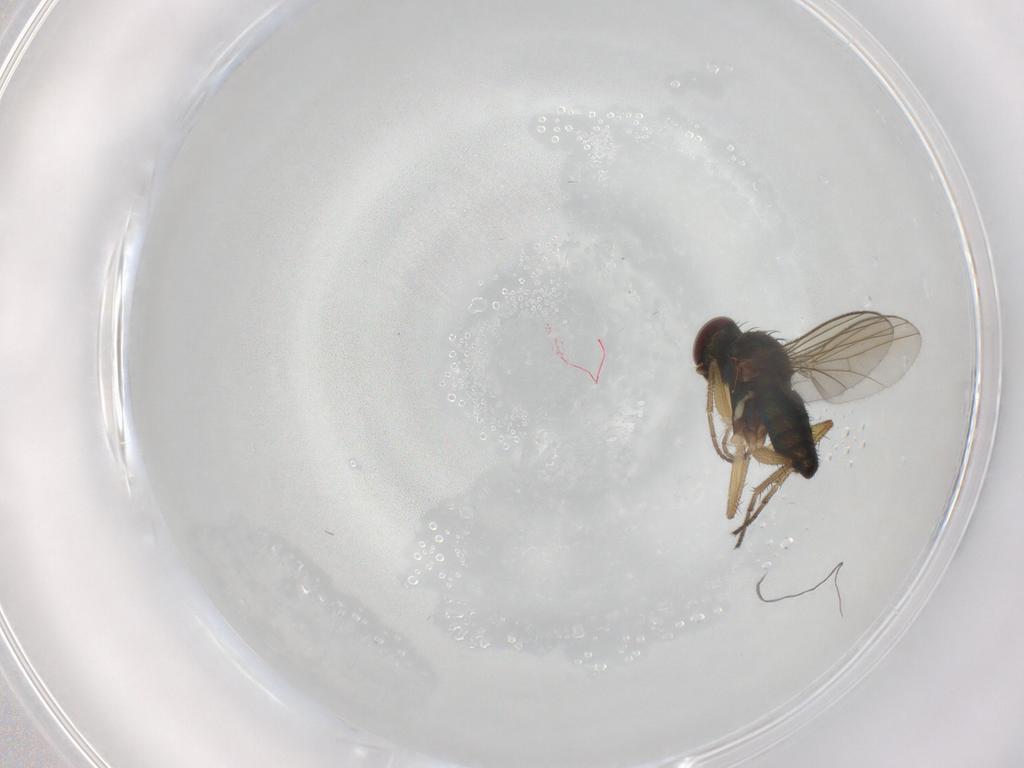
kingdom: Animalia
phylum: Arthropoda
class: Insecta
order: Diptera
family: Dolichopodidae
